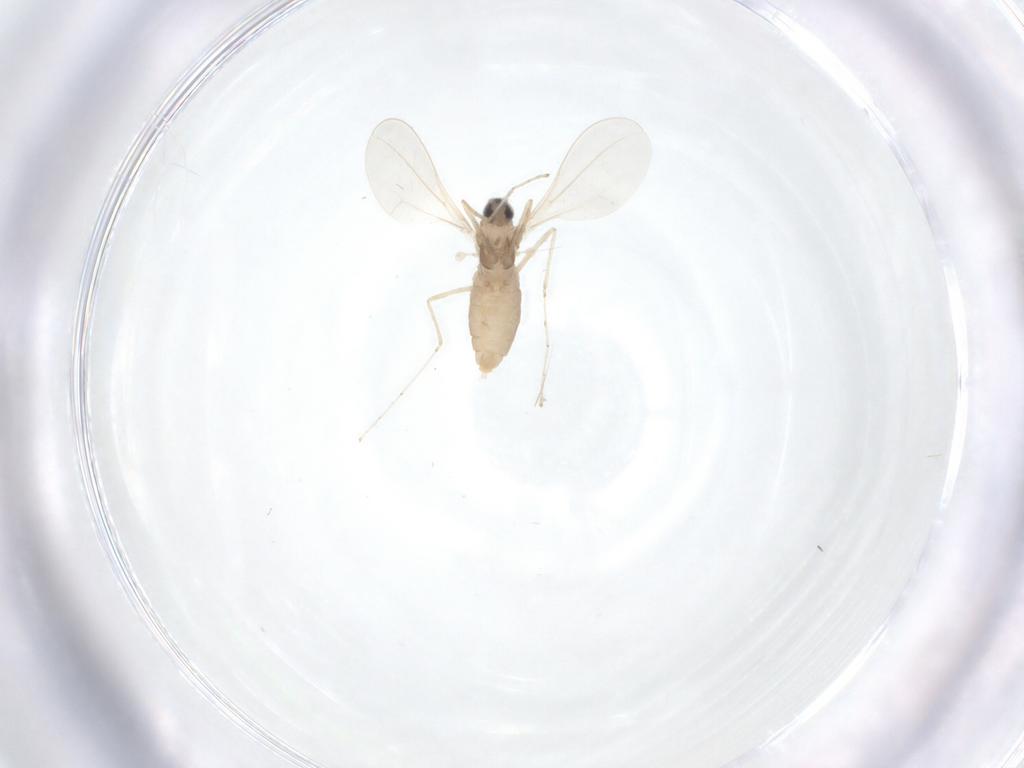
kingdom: Animalia
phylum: Arthropoda
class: Insecta
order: Diptera
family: Cecidomyiidae
